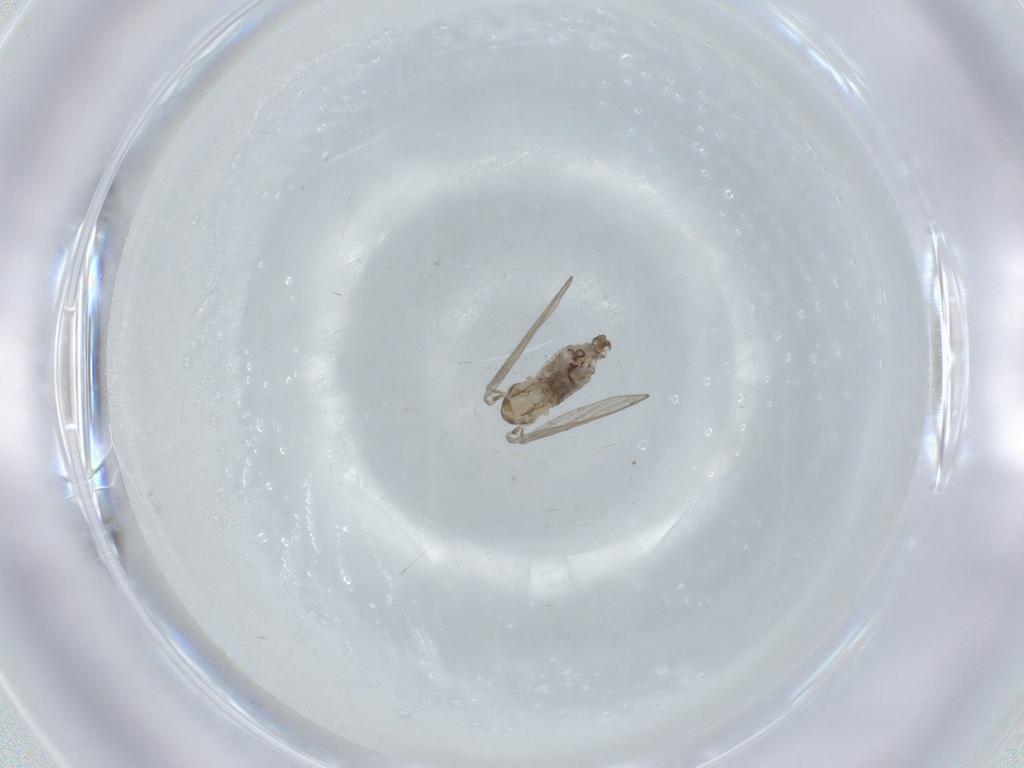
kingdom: Animalia
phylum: Arthropoda
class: Insecta
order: Diptera
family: Psychodidae
